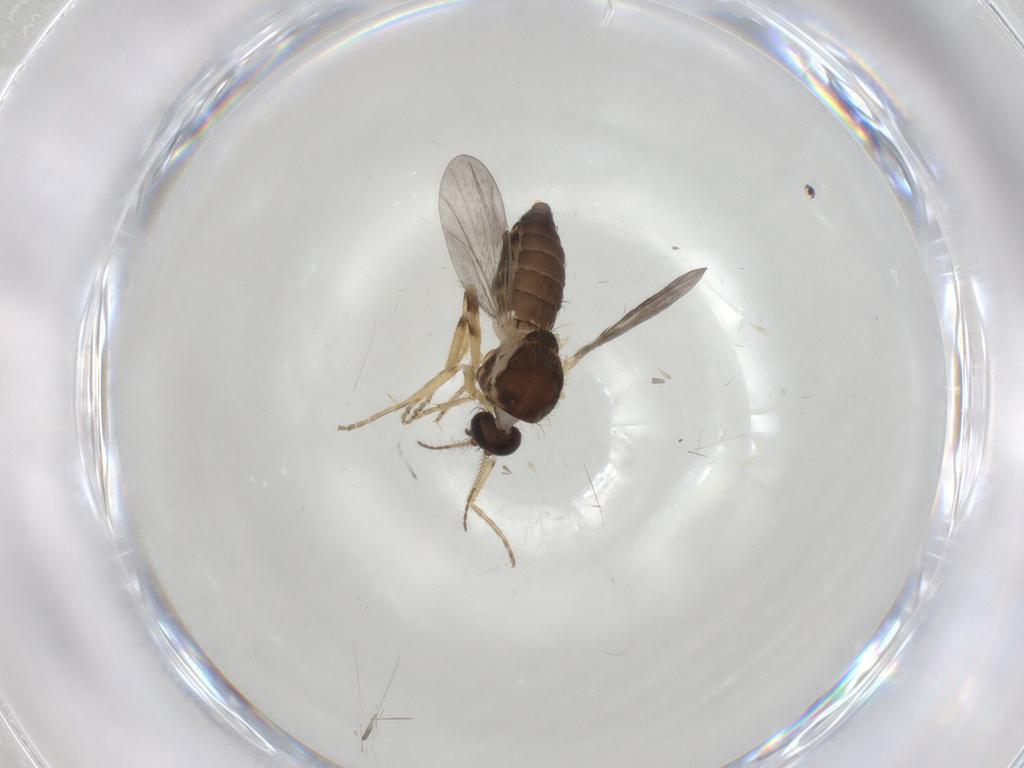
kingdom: Animalia
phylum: Arthropoda
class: Insecta
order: Diptera
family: Ceratopogonidae
